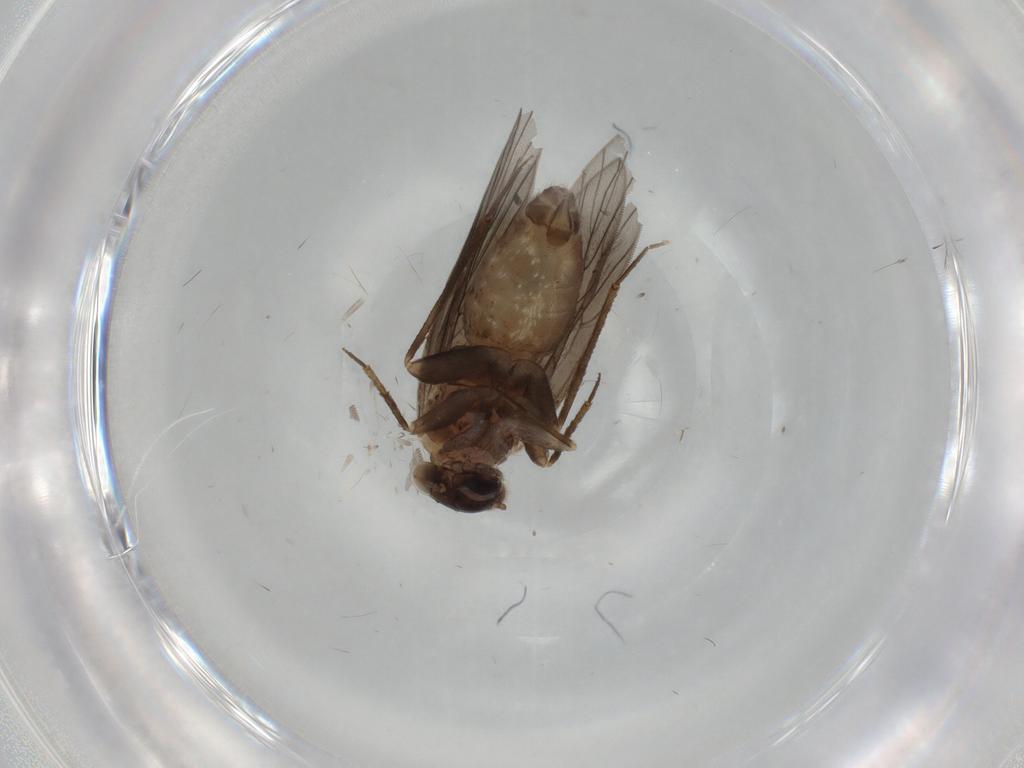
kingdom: Animalia
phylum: Arthropoda
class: Insecta
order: Psocodea
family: Lepidopsocidae
